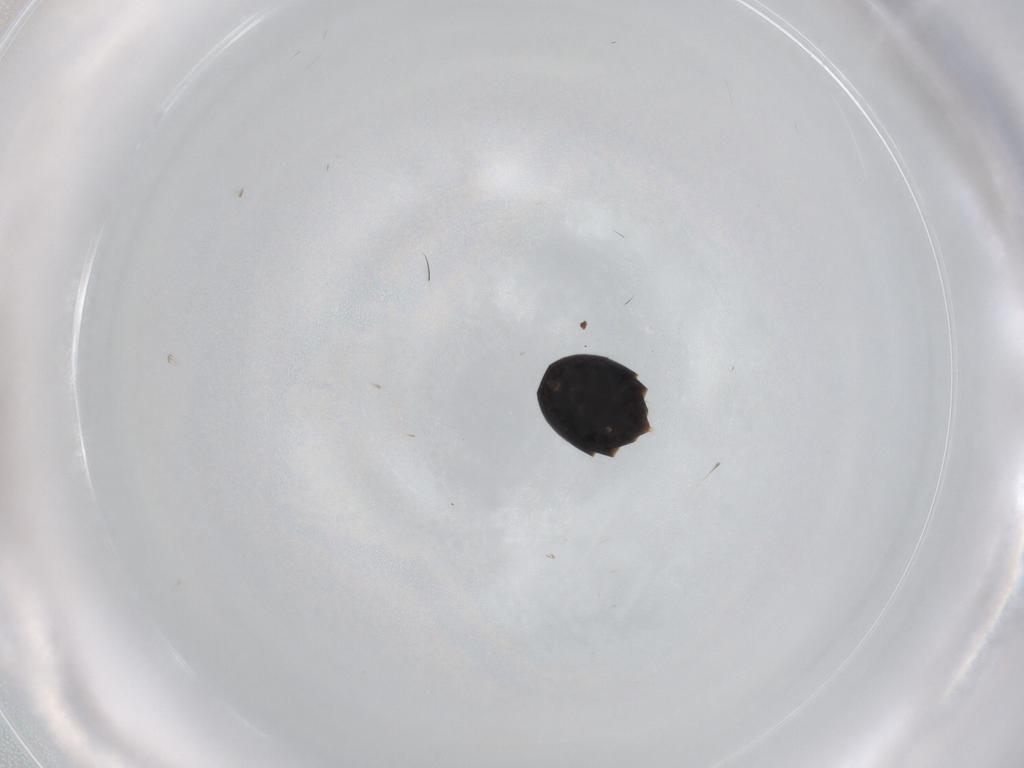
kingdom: Animalia
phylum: Arthropoda
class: Insecta
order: Hymenoptera
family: Formicidae
